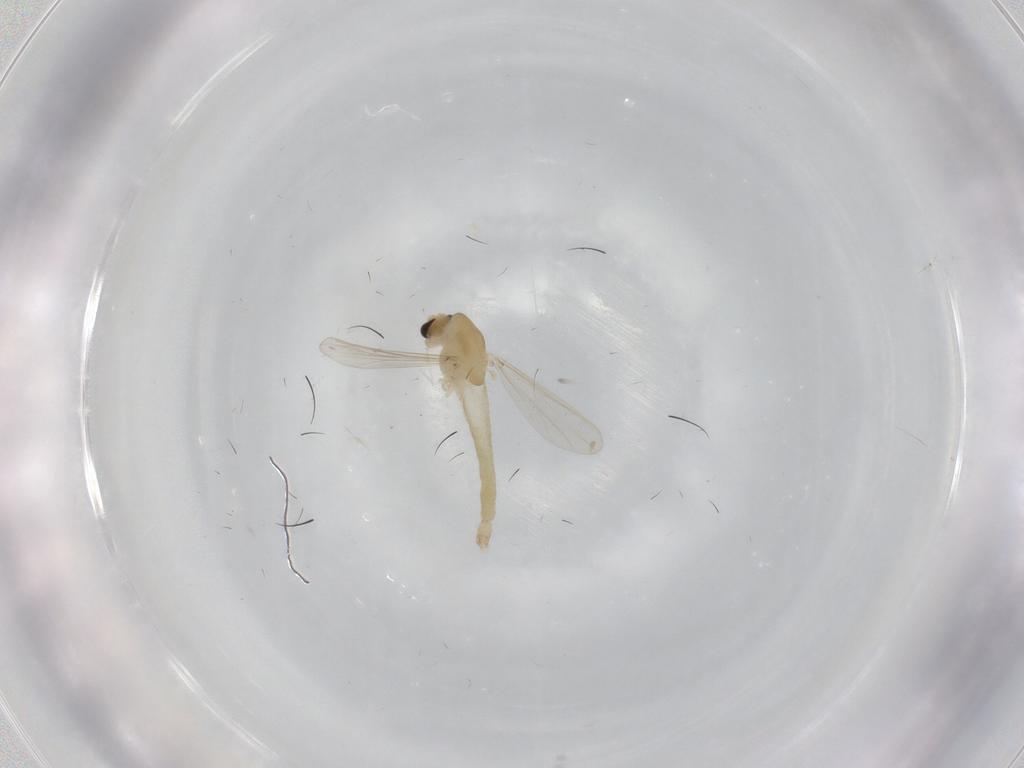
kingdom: Animalia
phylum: Arthropoda
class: Insecta
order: Diptera
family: Chironomidae
